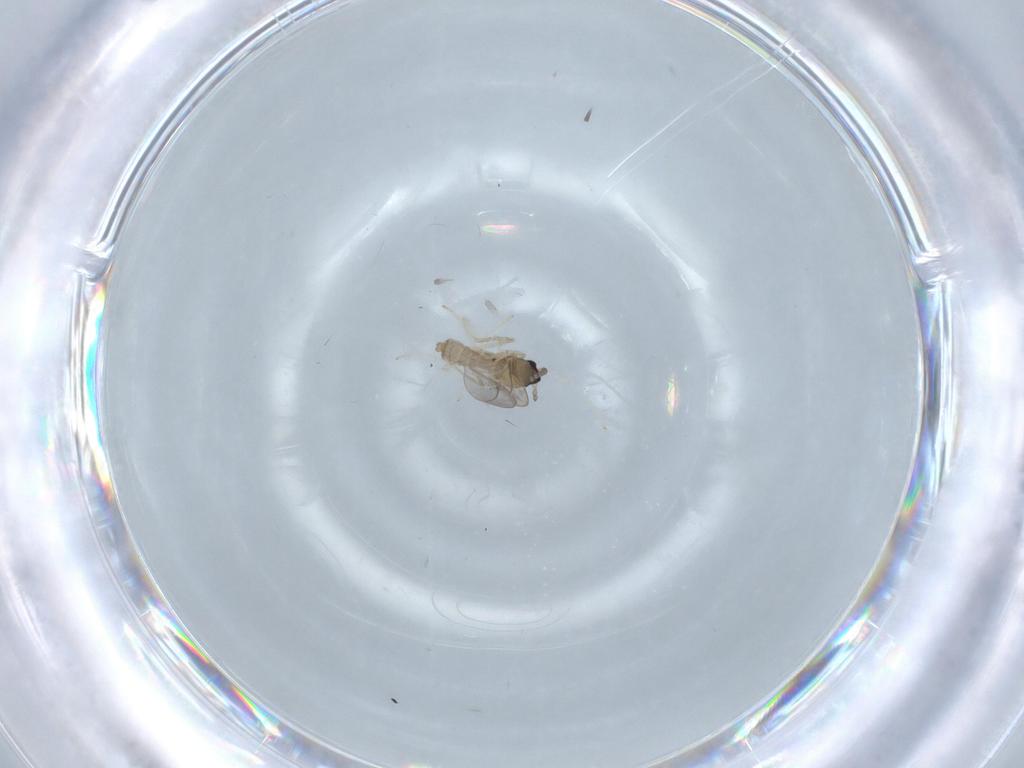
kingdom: Animalia
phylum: Arthropoda
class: Insecta
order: Diptera
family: Cecidomyiidae
